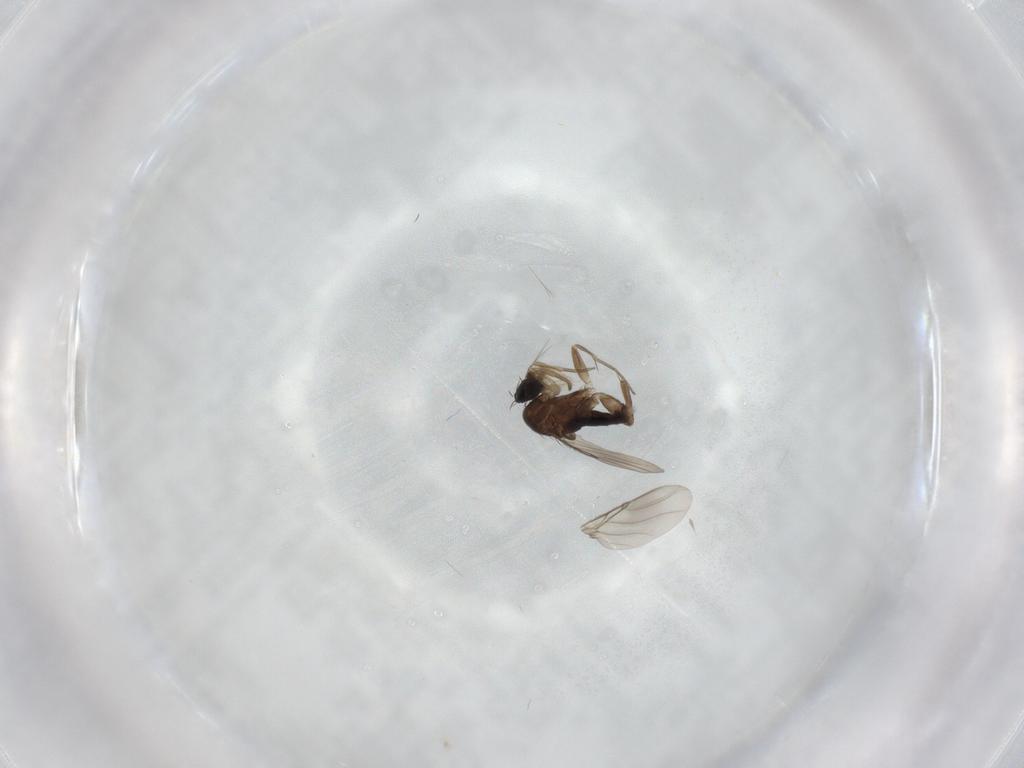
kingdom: Animalia
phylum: Arthropoda
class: Insecta
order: Diptera
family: Phoridae
